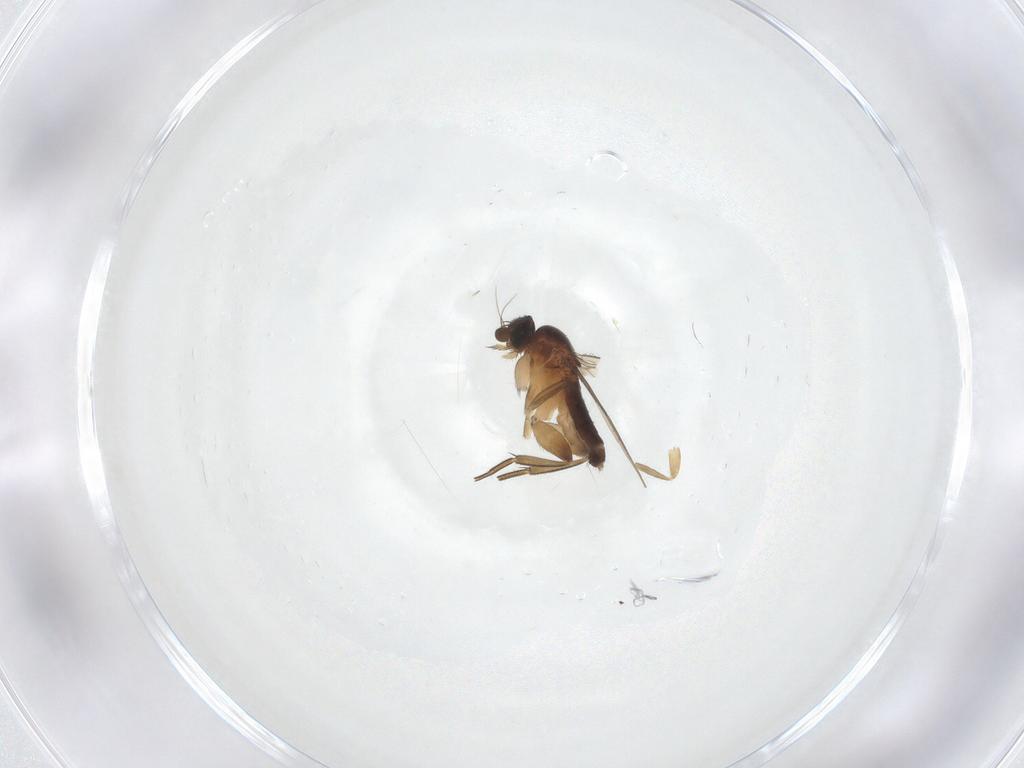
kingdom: Animalia
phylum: Arthropoda
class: Insecta
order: Diptera
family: Phoridae
